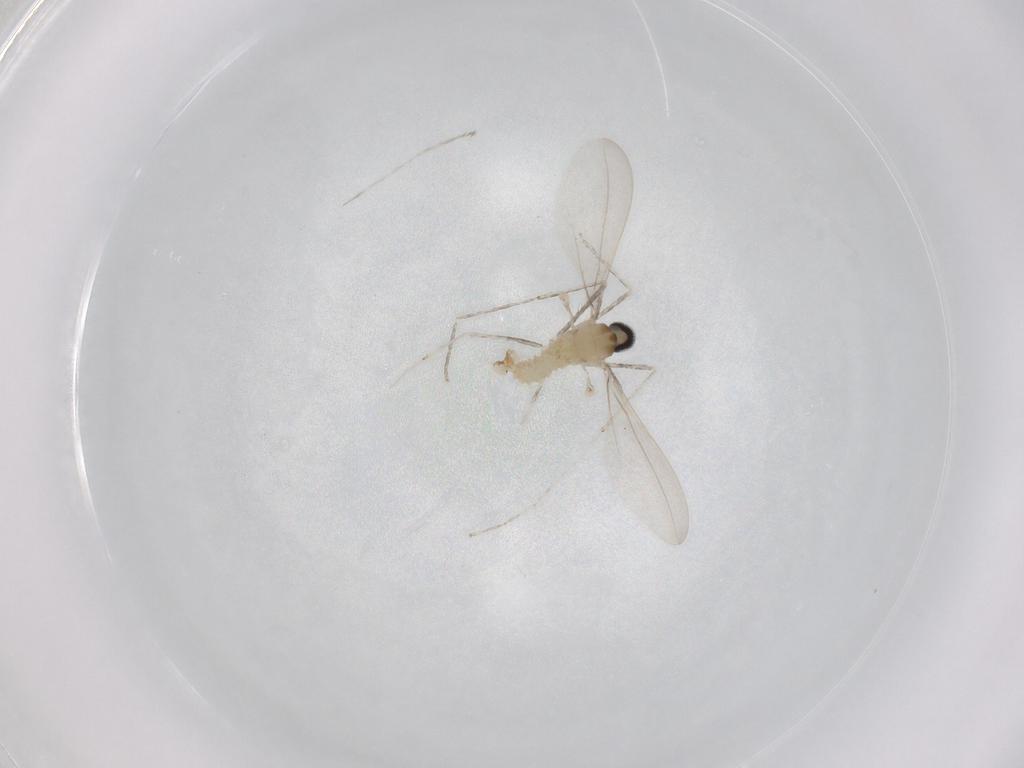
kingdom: Animalia
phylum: Arthropoda
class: Insecta
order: Diptera
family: Cecidomyiidae
